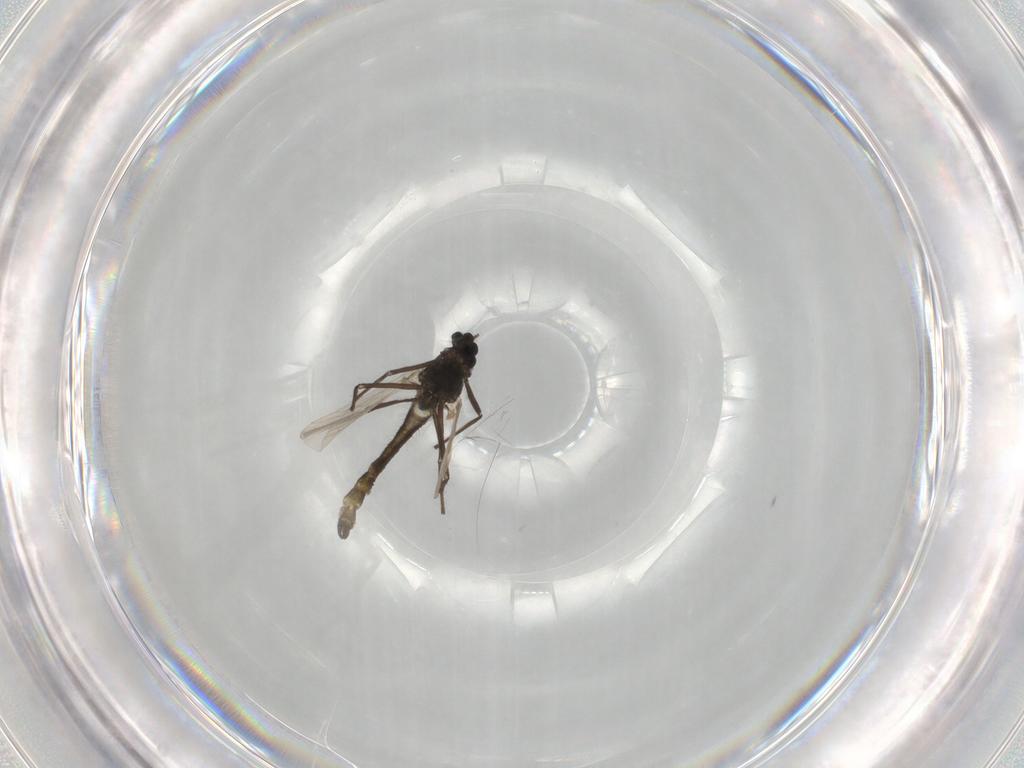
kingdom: Animalia
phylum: Arthropoda
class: Insecta
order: Diptera
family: Chironomidae
